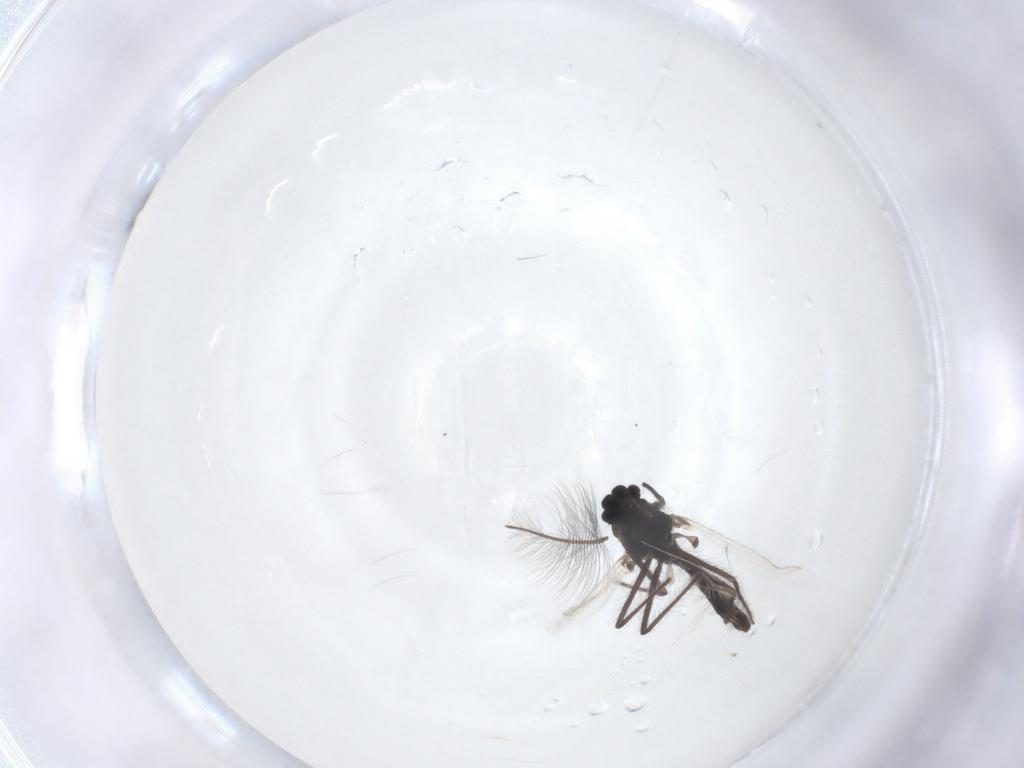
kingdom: Animalia
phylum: Arthropoda
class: Insecta
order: Diptera
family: Chironomidae
